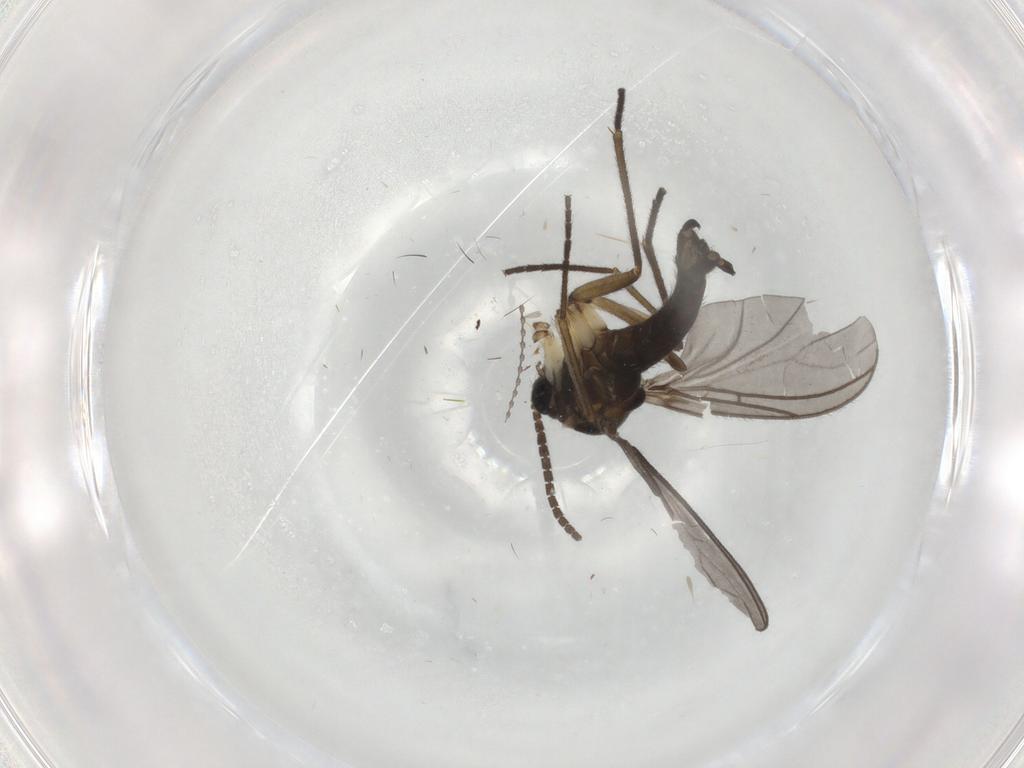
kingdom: Animalia
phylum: Arthropoda
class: Insecta
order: Diptera
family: Sciaridae
